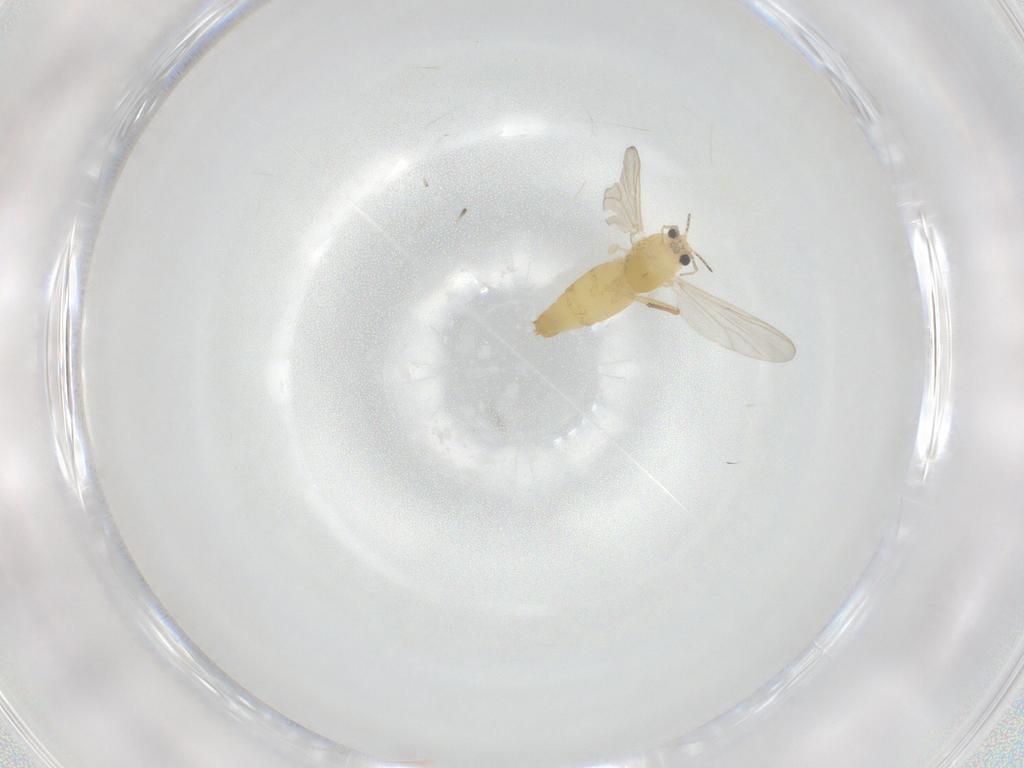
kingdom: Animalia
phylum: Arthropoda
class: Insecta
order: Diptera
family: Chironomidae
